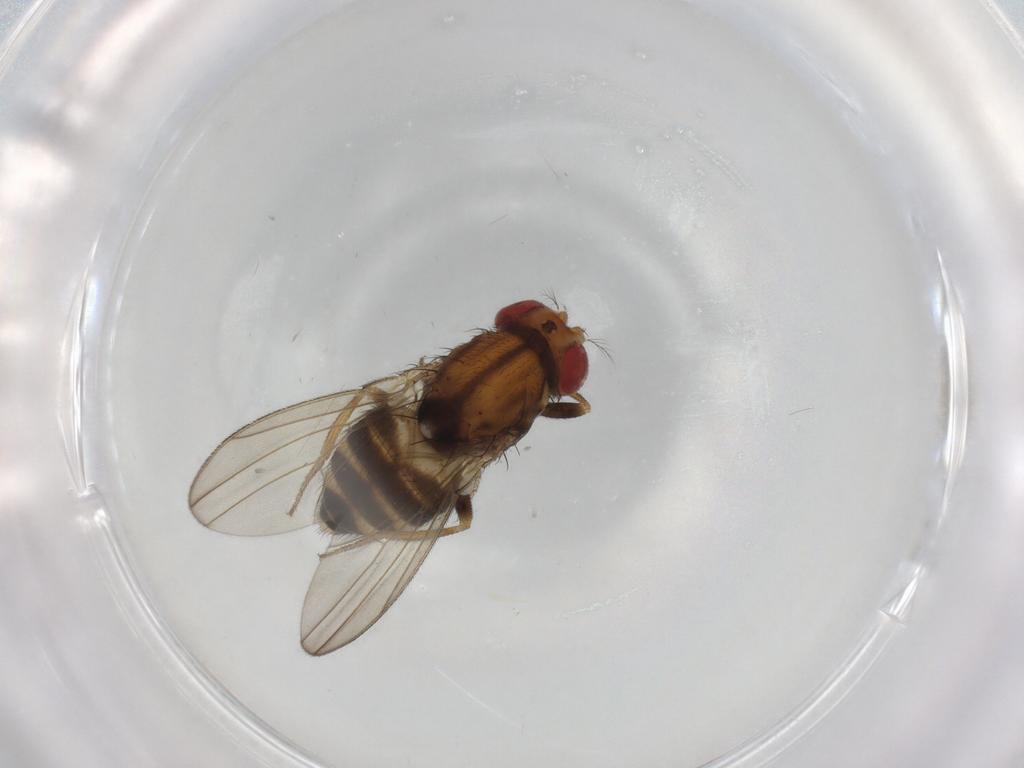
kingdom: Animalia
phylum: Arthropoda
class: Insecta
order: Diptera
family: Drosophilidae
